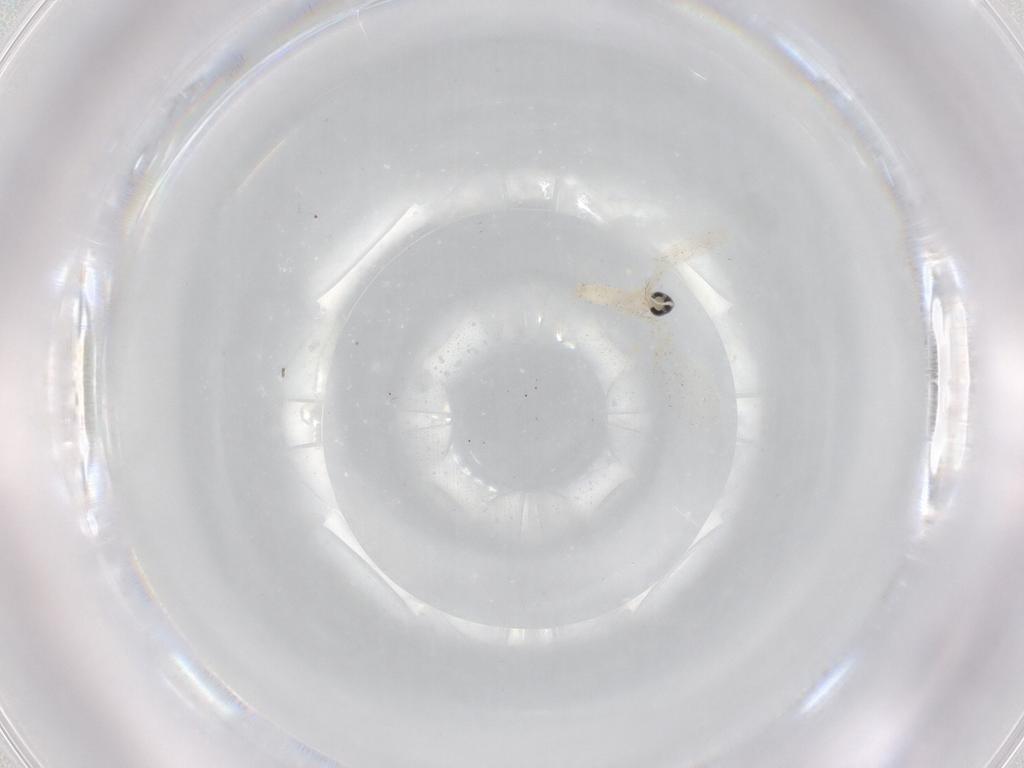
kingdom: Animalia
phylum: Arthropoda
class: Insecta
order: Diptera
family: Cecidomyiidae
